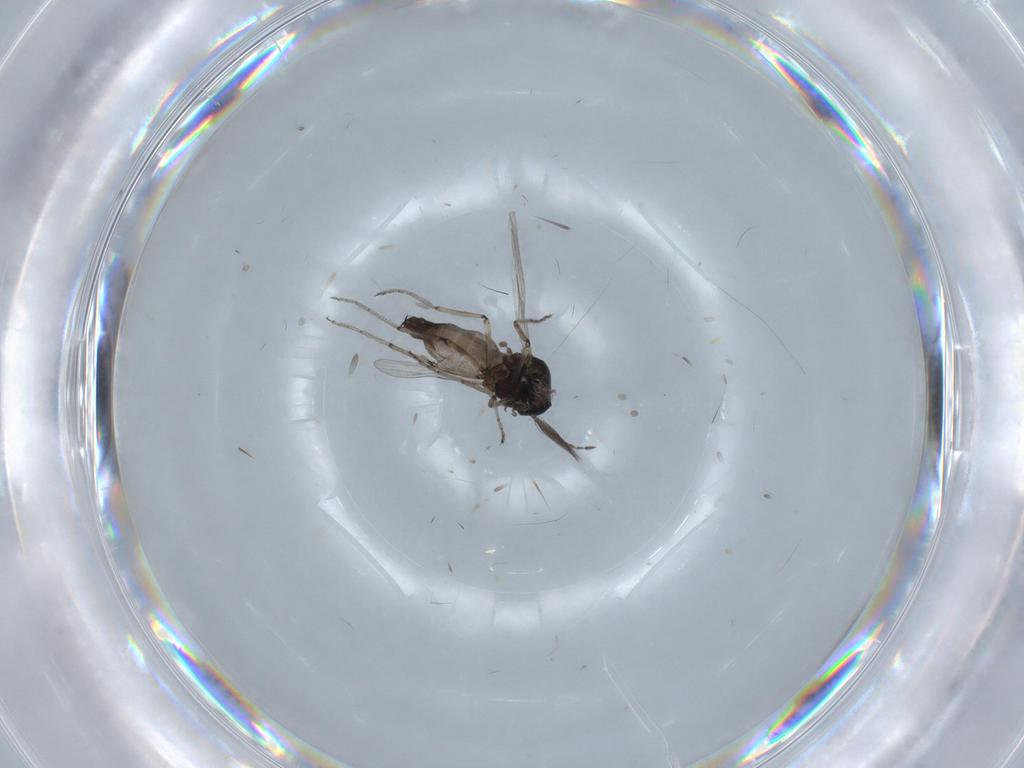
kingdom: Animalia
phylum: Arthropoda
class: Insecta
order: Diptera
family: Ceratopogonidae
